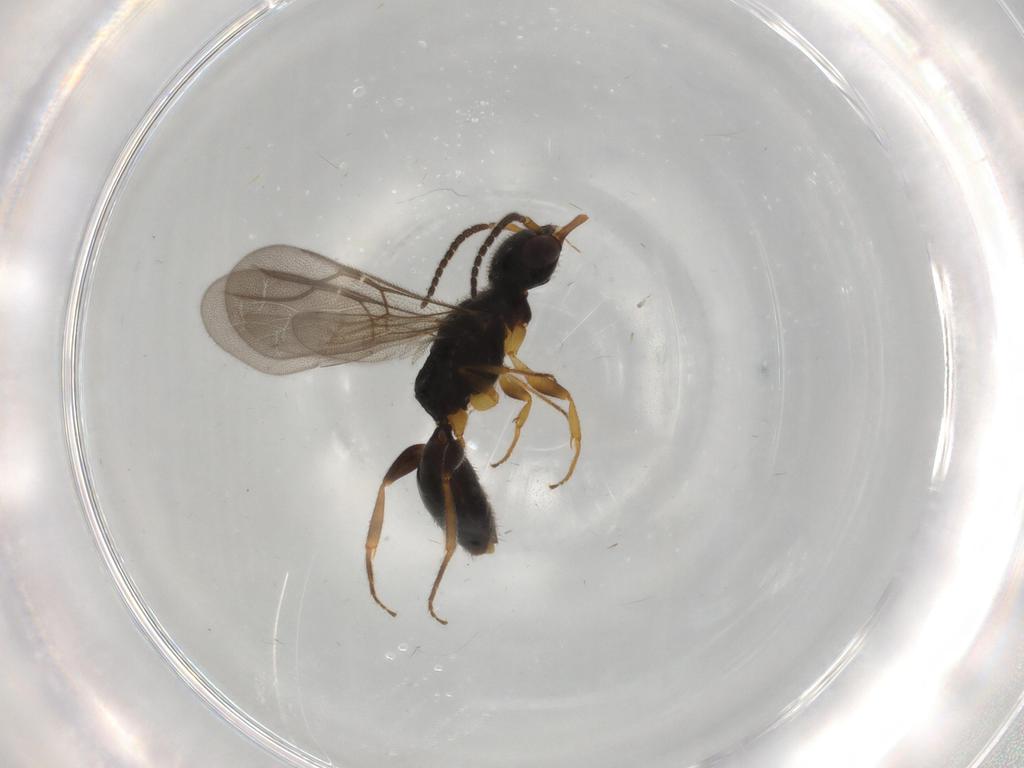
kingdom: Animalia
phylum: Arthropoda
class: Insecta
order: Hymenoptera
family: Bethylidae
